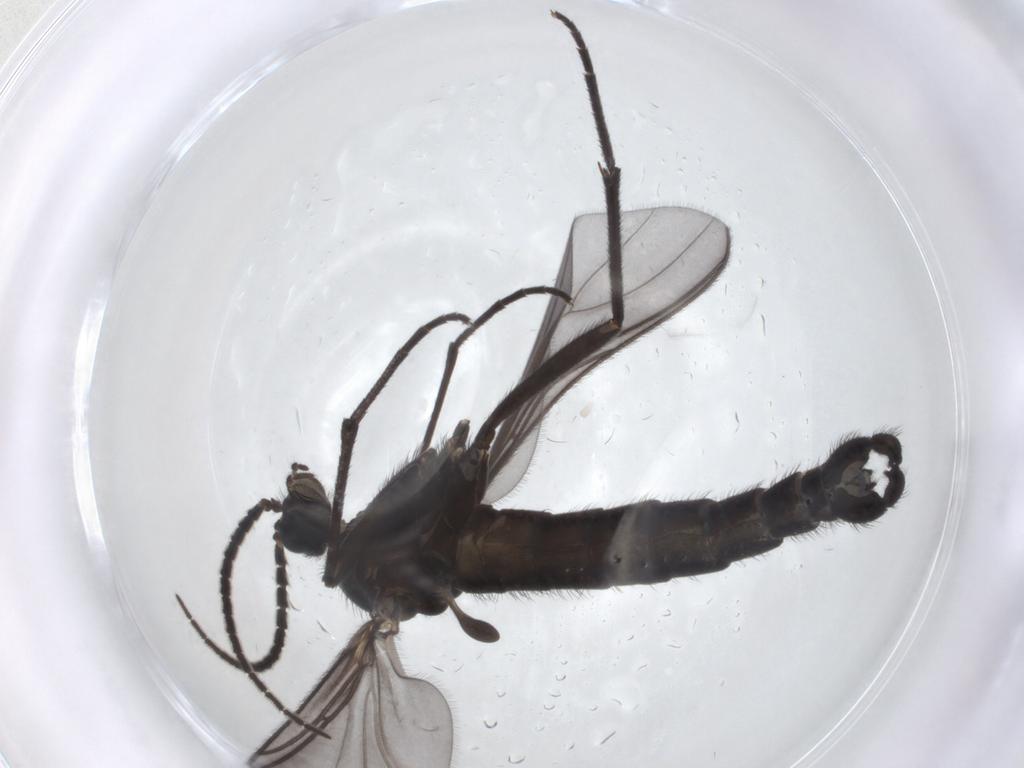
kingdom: Animalia
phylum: Arthropoda
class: Insecta
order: Diptera
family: Sciaridae
